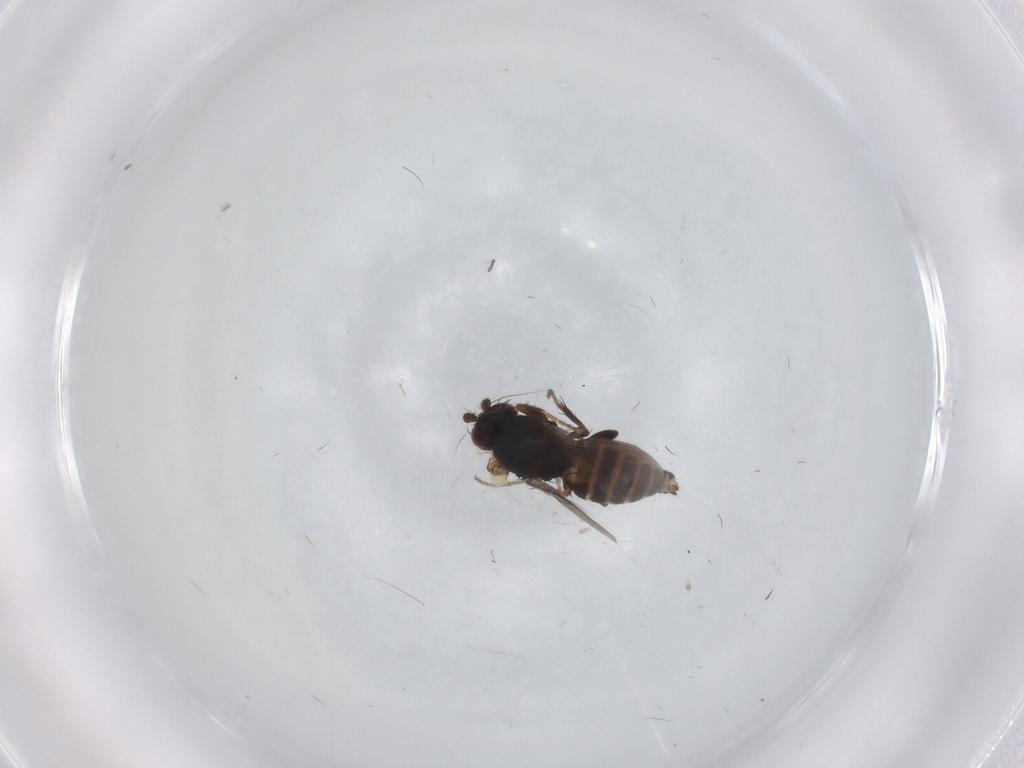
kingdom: Animalia
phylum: Arthropoda
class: Insecta
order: Diptera
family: Sphaeroceridae
